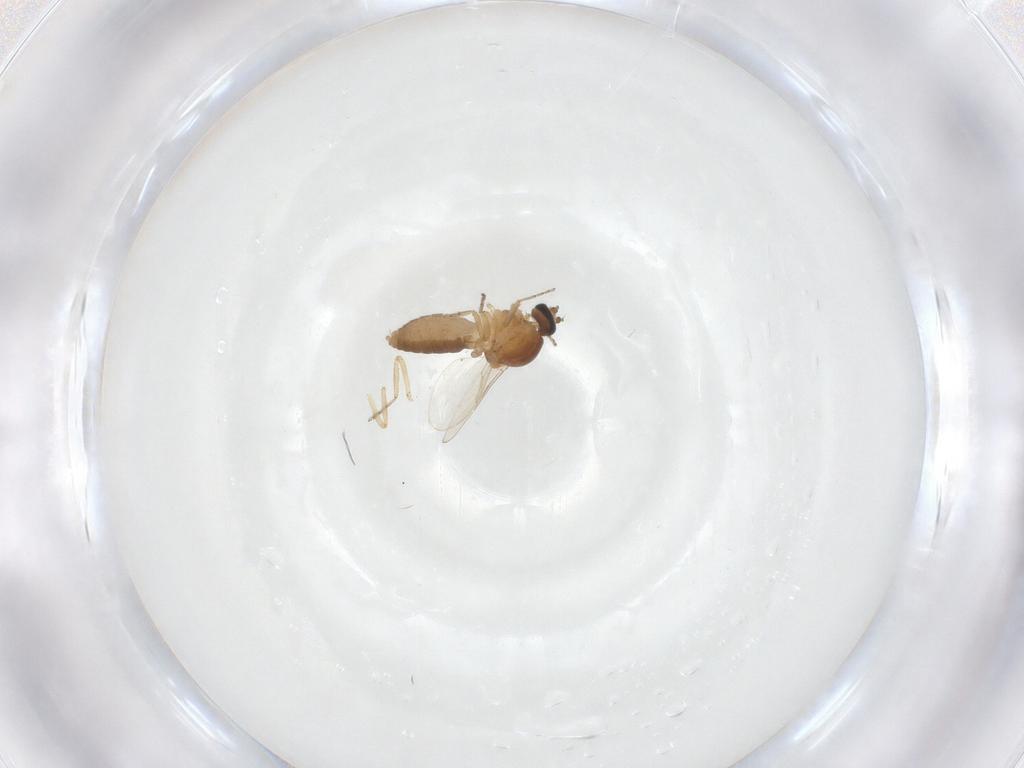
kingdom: Animalia
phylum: Arthropoda
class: Insecta
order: Diptera
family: Ceratopogonidae
